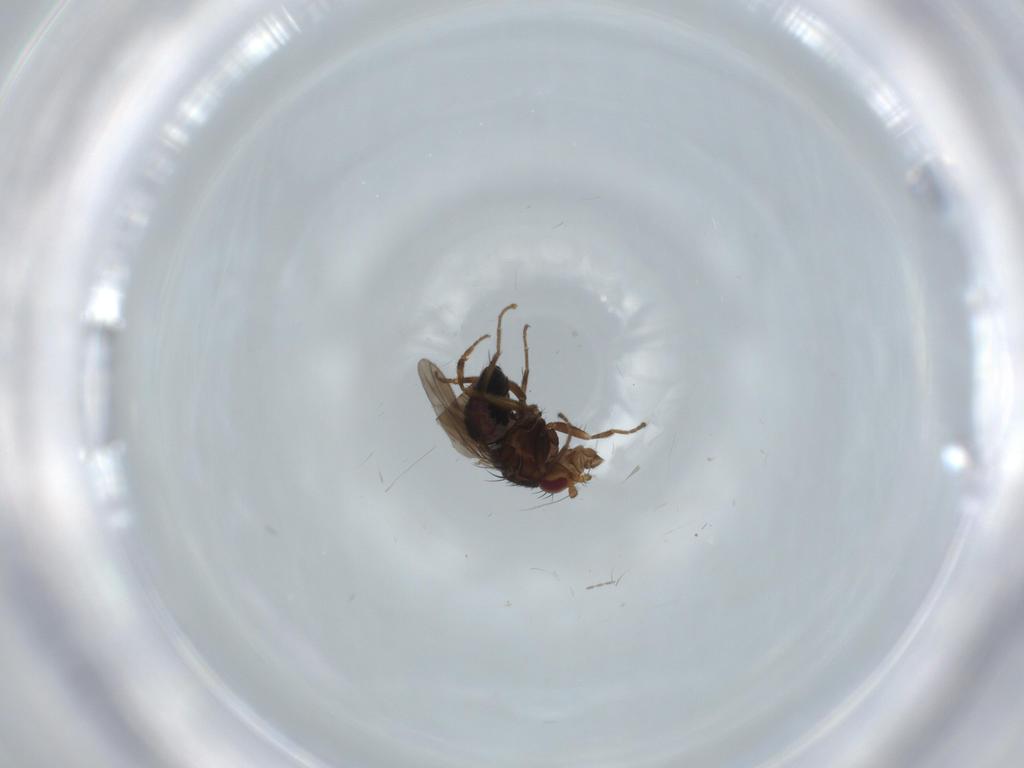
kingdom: Animalia
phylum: Arthropoda
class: Insecta
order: Diptera
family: Sphaeroceridae
